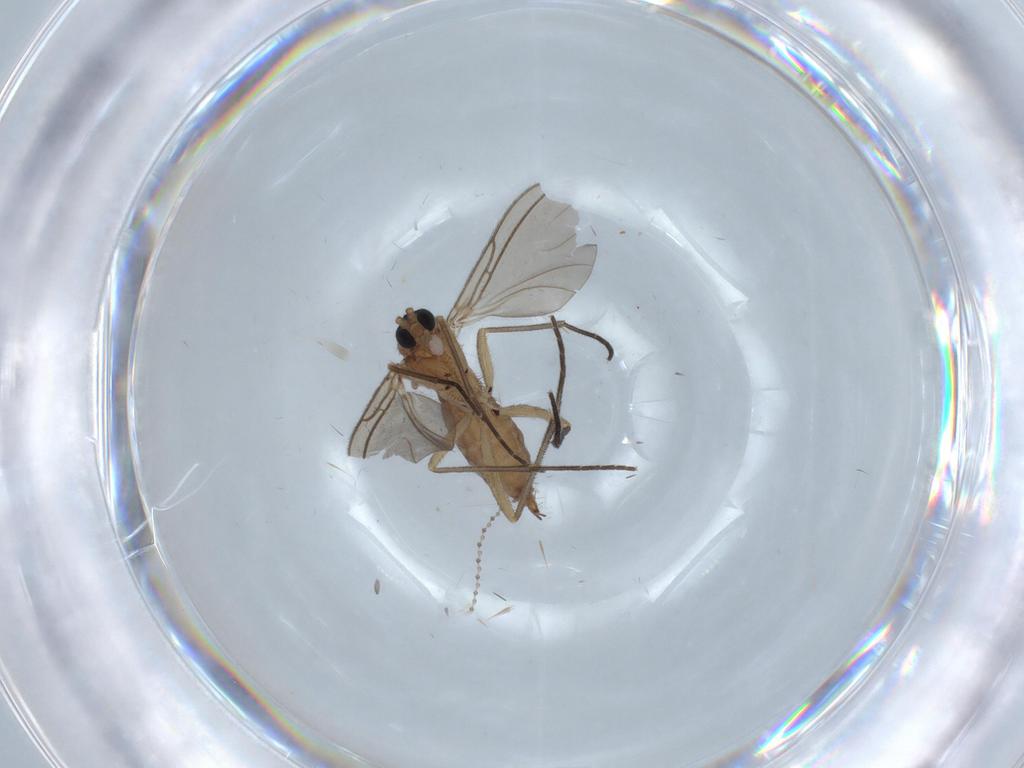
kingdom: Animalia
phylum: Arthropoda
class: Insecta
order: Diptera
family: Sciaridae
